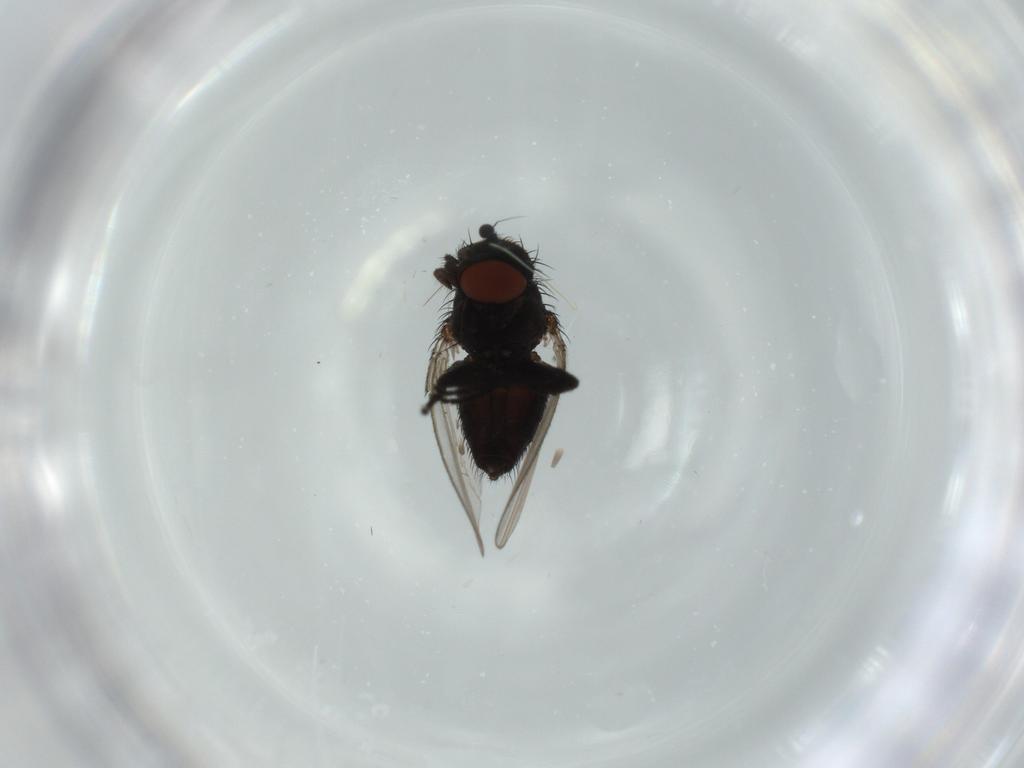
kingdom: Animalia
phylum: Arthropoda
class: Insecta
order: Diptera
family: Milichiidae
